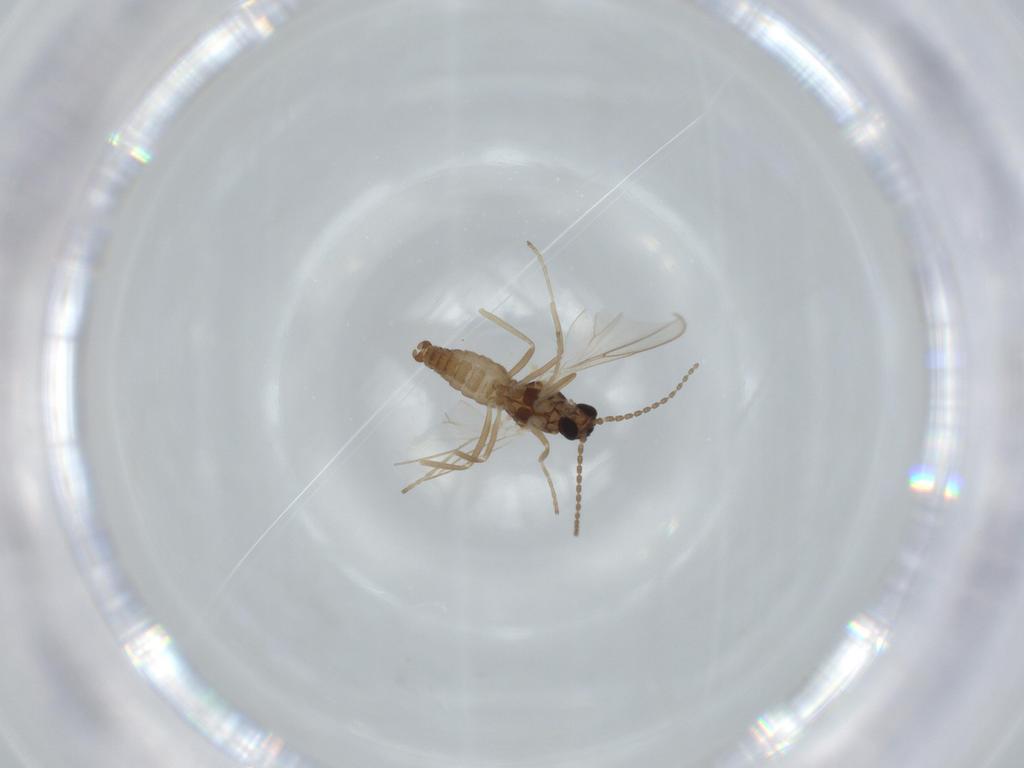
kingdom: Animalia
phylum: Arthropoda
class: Insecta
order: Diptera
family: Cecidomyiidae
